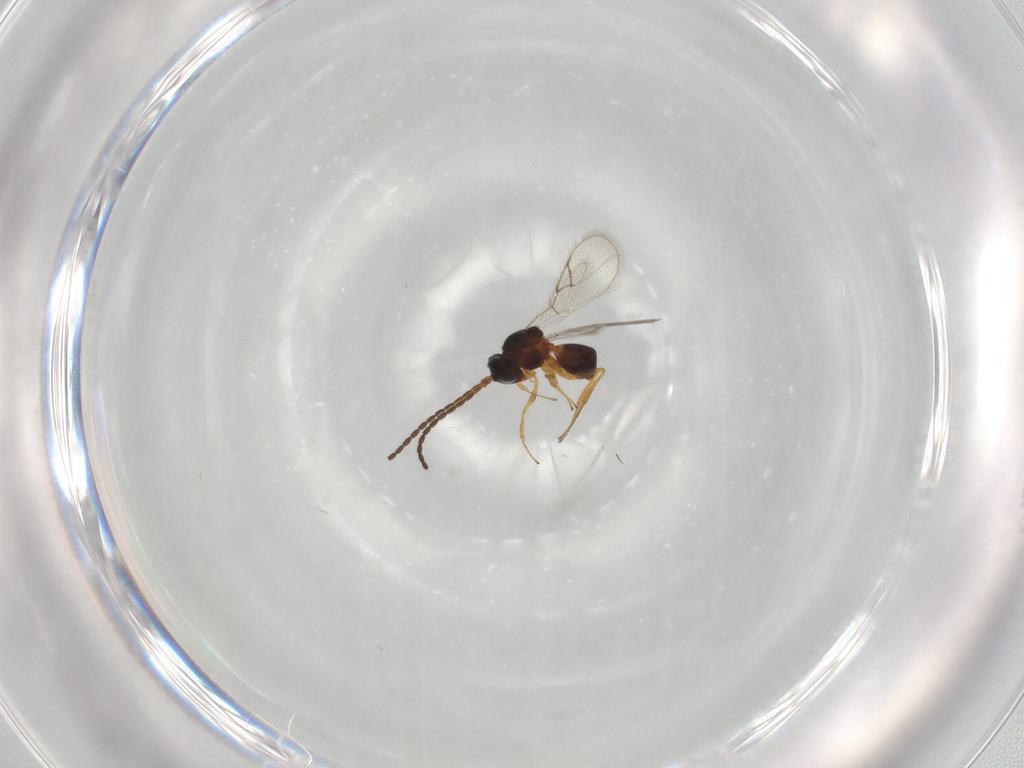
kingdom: Animalia
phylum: Arthropoda
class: Insecta
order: Hymenoptera
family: Figitidae
